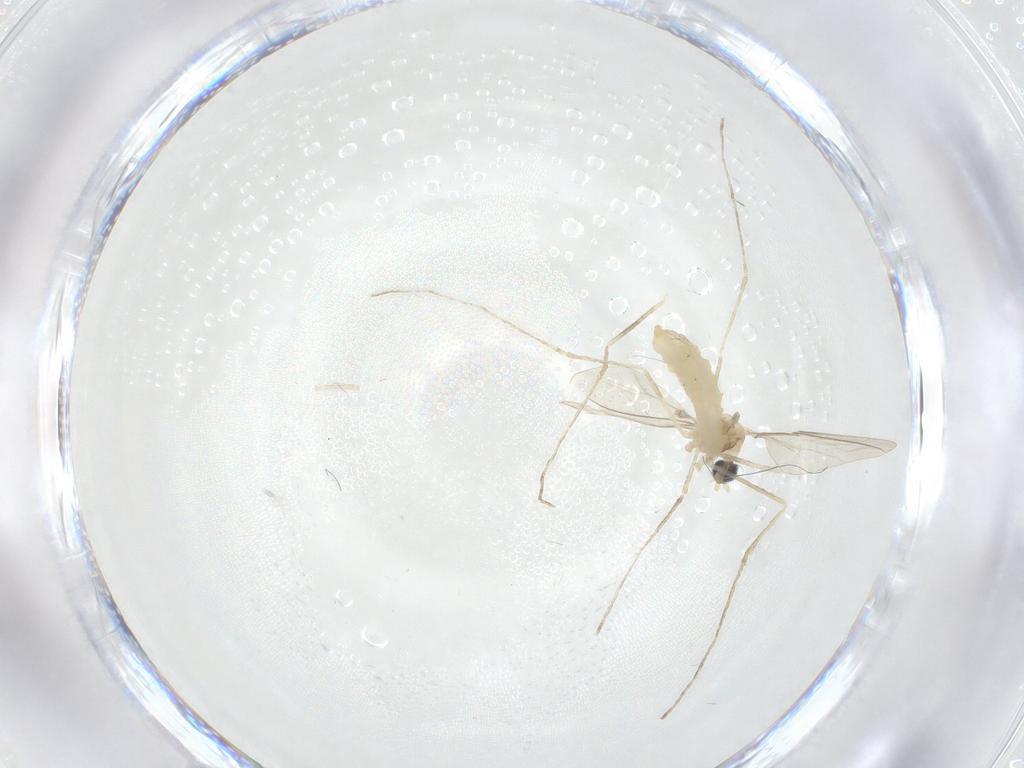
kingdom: Animalia
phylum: Arthropoda
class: Insecta
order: Diptera
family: Cecidomyiidae
